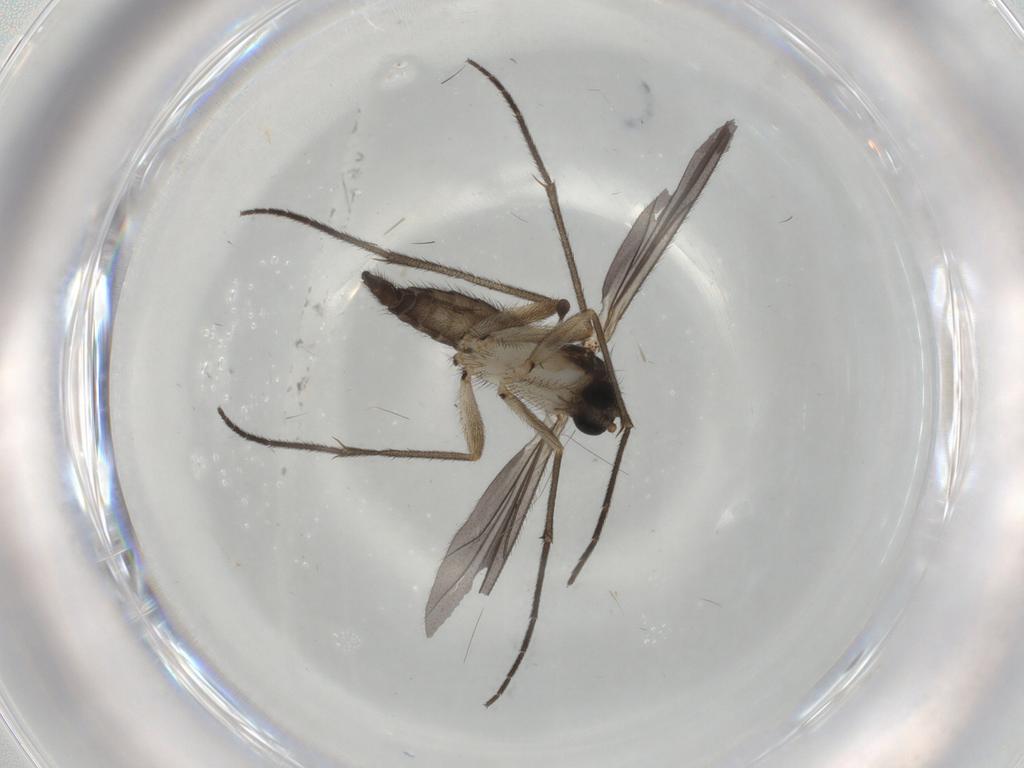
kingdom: Animalia
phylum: Arthropoda
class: Insecta
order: Diptera
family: Sciaridae
